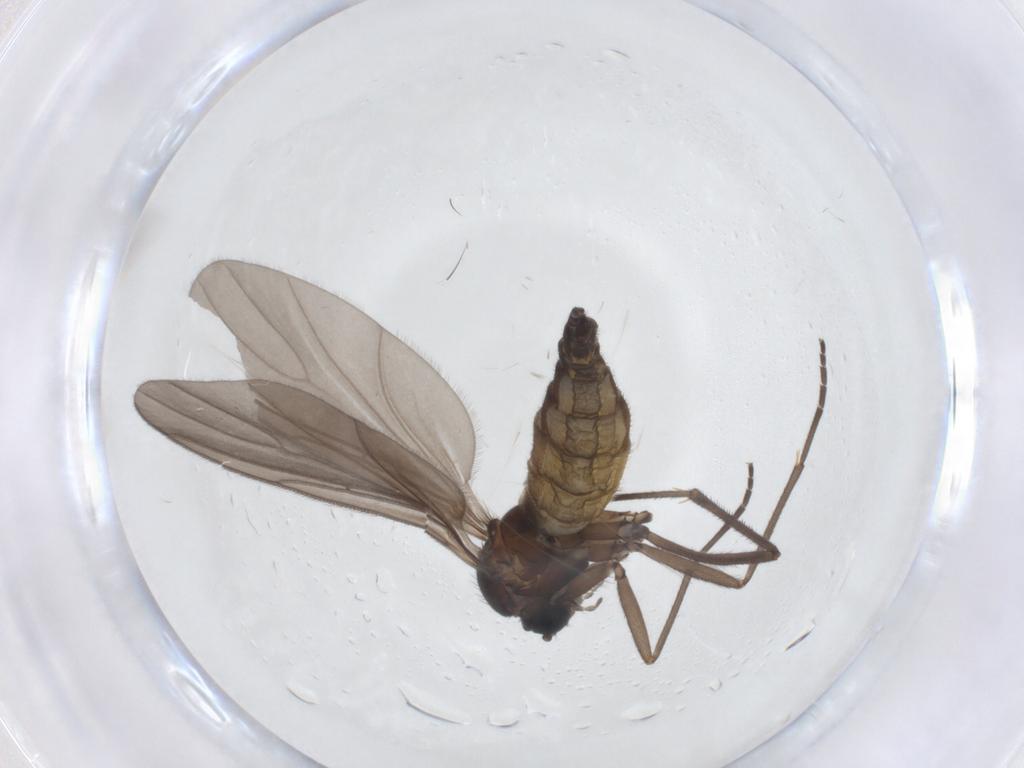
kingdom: Animalia
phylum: Arthropoda
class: Insecta
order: Diptera
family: Sciaridae
